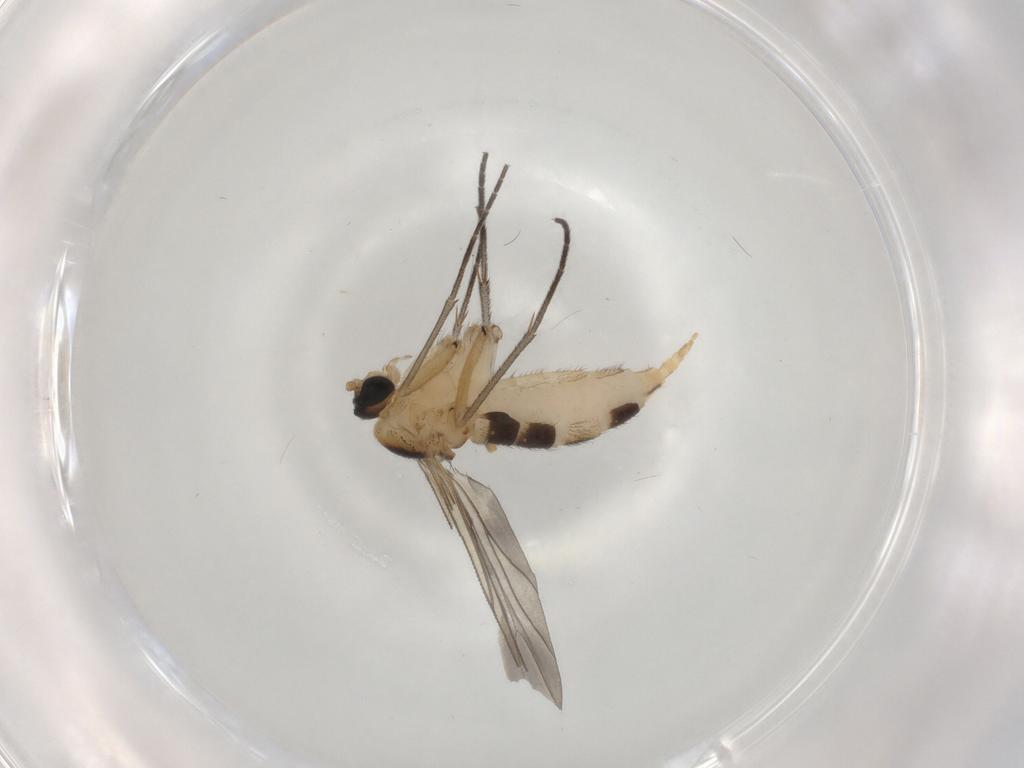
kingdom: Animalia
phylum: Arthropoda
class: Insecta
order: Diptera
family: Sciaridae
